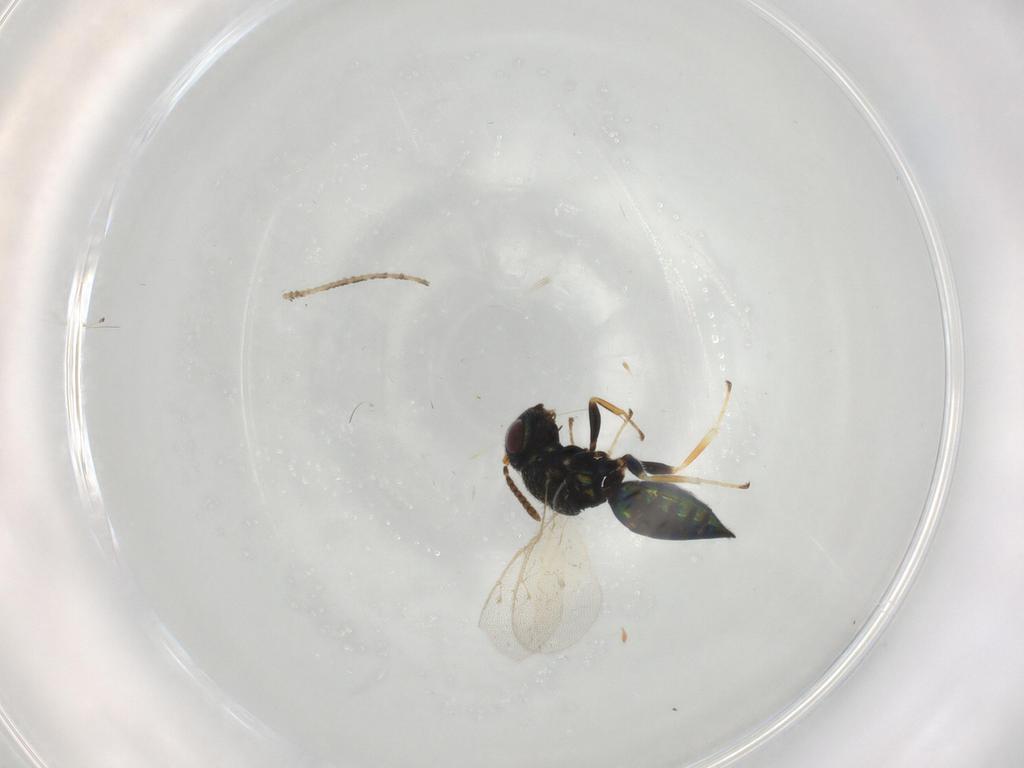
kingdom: Animalia
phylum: Arthropoda
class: Insecta
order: Hymenoptera
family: Pteromalidae
